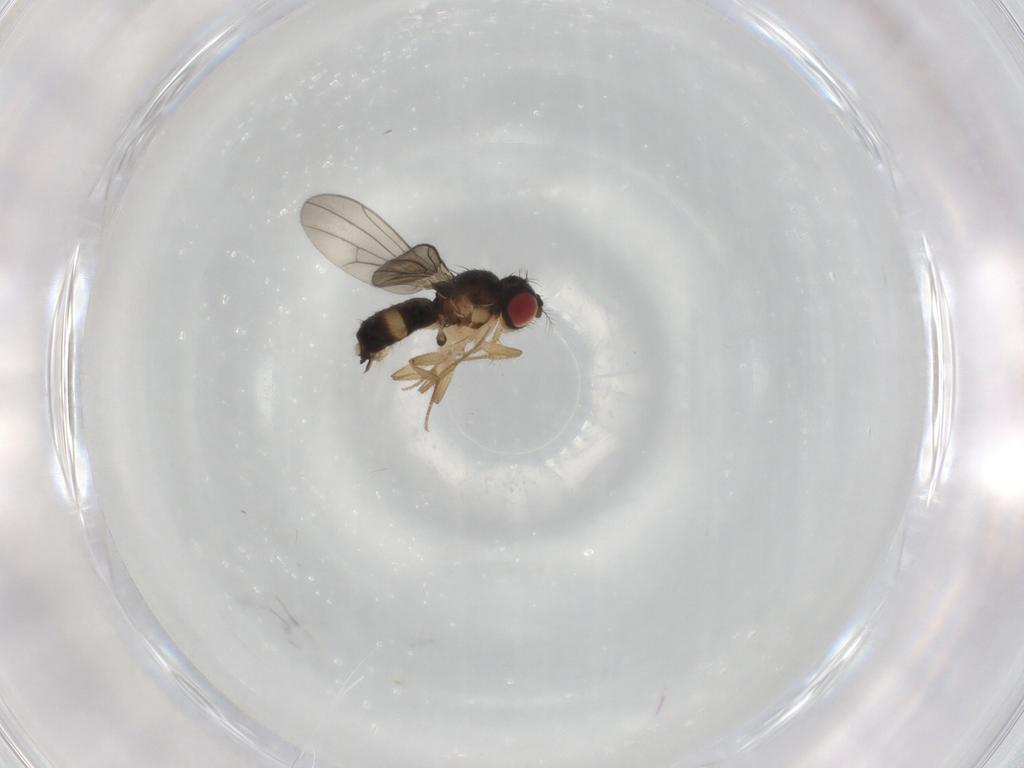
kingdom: Animalia
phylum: Arthropoda
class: Insecta
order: Diptera
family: Drosophilidae
